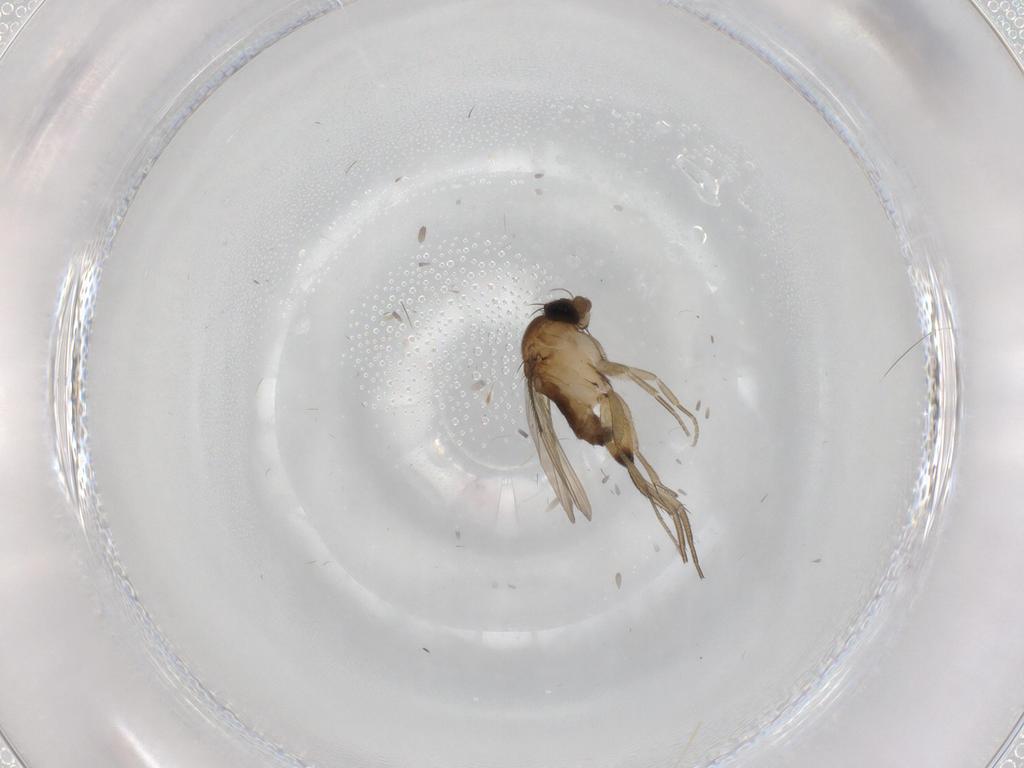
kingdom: Animalia
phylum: Arthropoda
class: Insecta
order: Diptera
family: Phoridae
